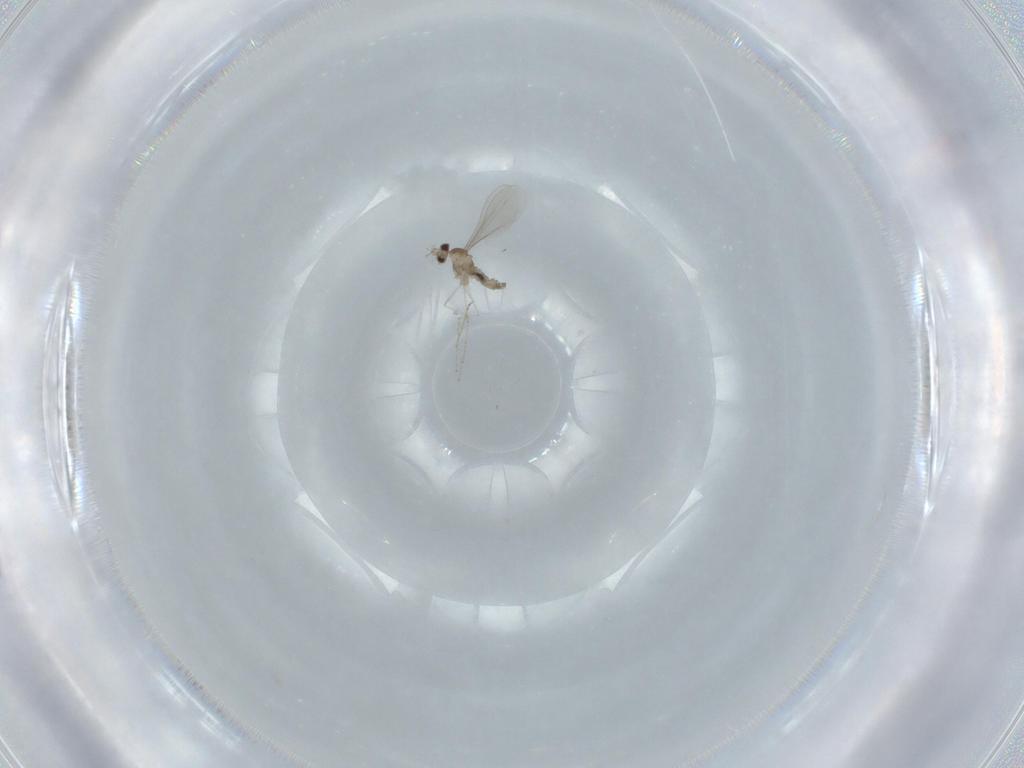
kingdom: Animalia
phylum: Arthropoda
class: Insecta
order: Diptera
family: Cecidomyiidae
